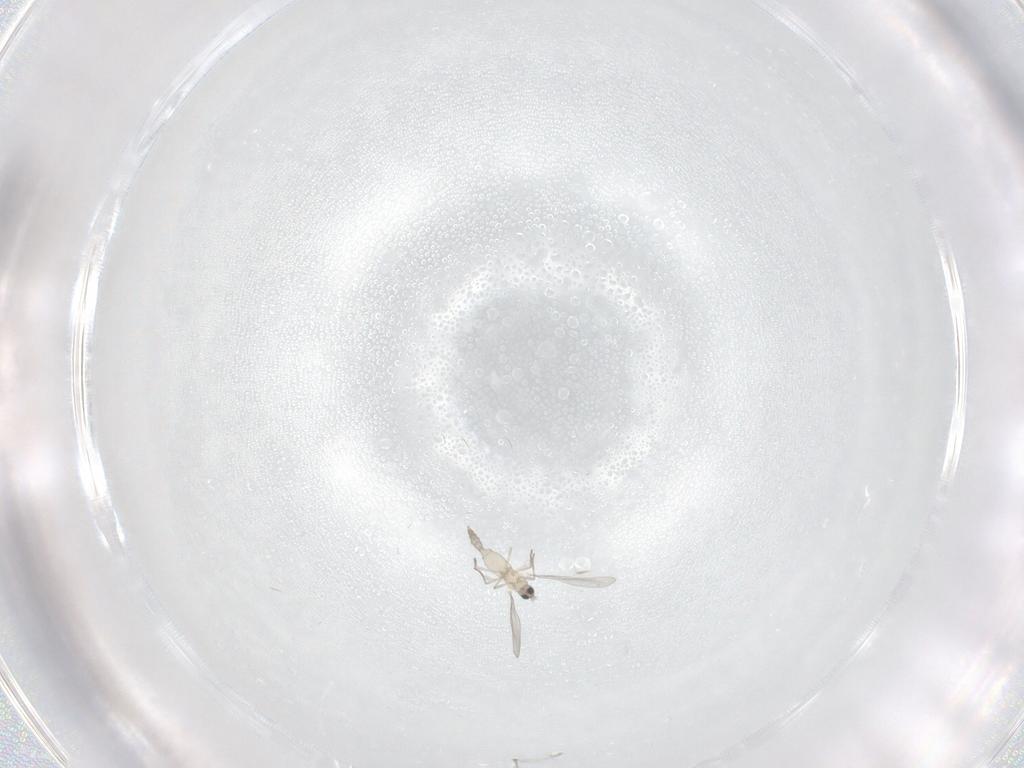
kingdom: Animalia
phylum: Arthropoda
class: Insecta
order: Diptera
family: Cecidomyiidae
